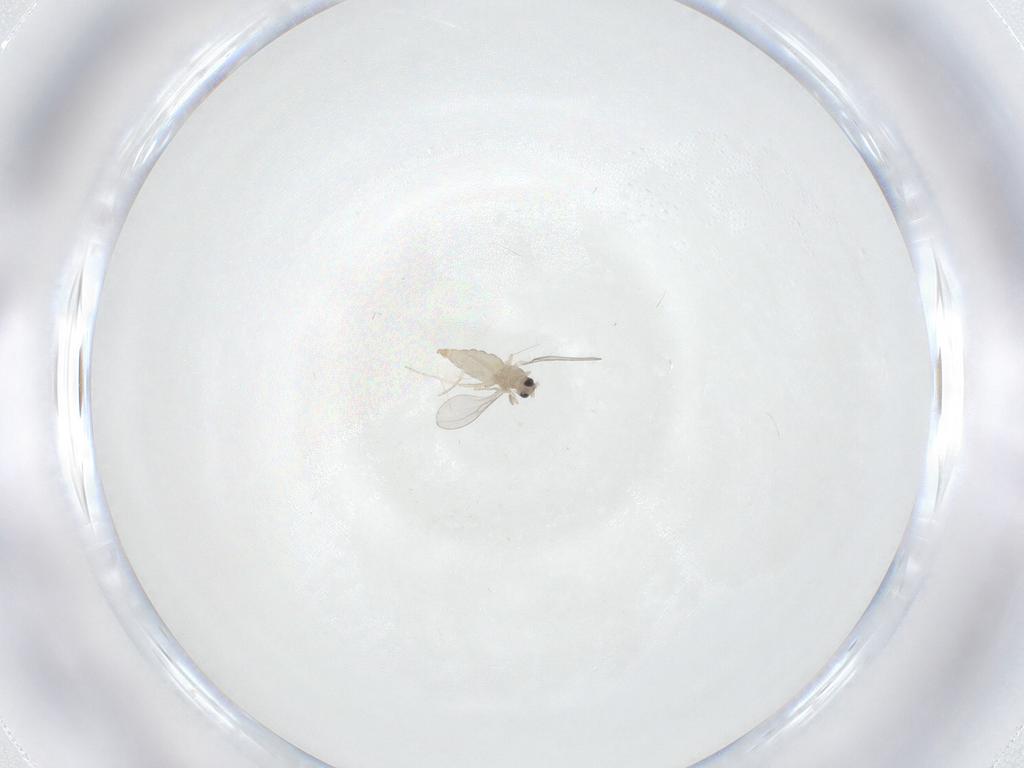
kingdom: Animalia
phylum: Arthropoda
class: Insecta
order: Diptera
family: Cecidomyiidae
